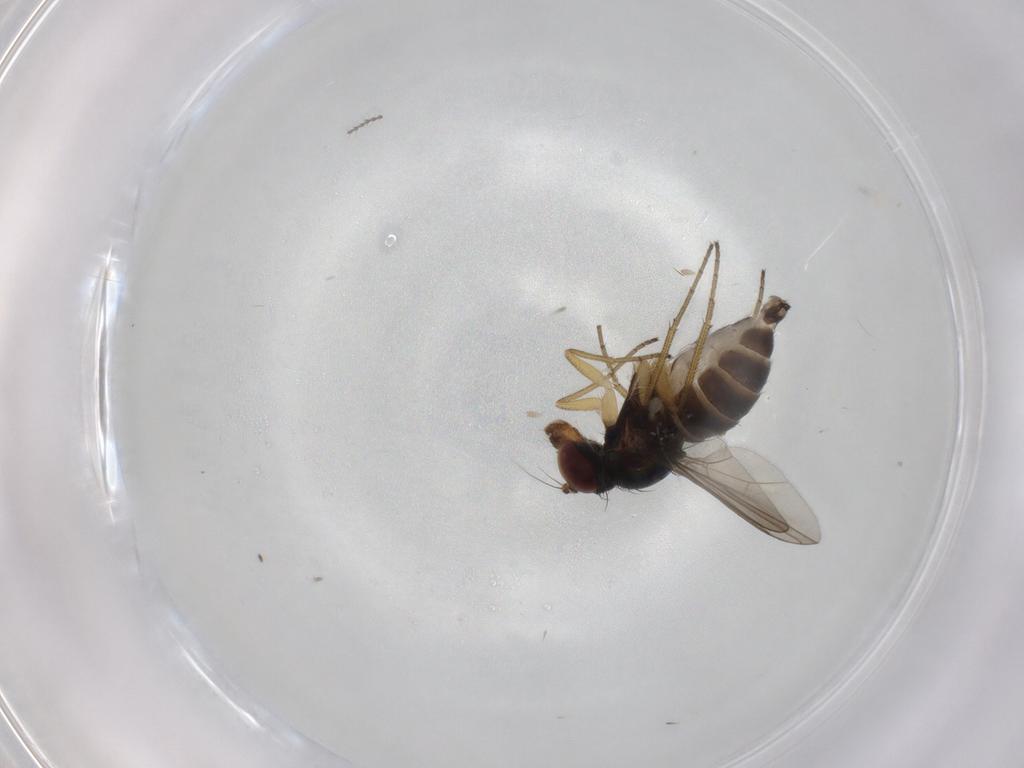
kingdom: Animalia
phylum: Arthropoda
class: Insecta
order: Diptera
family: Dolichopodidae
